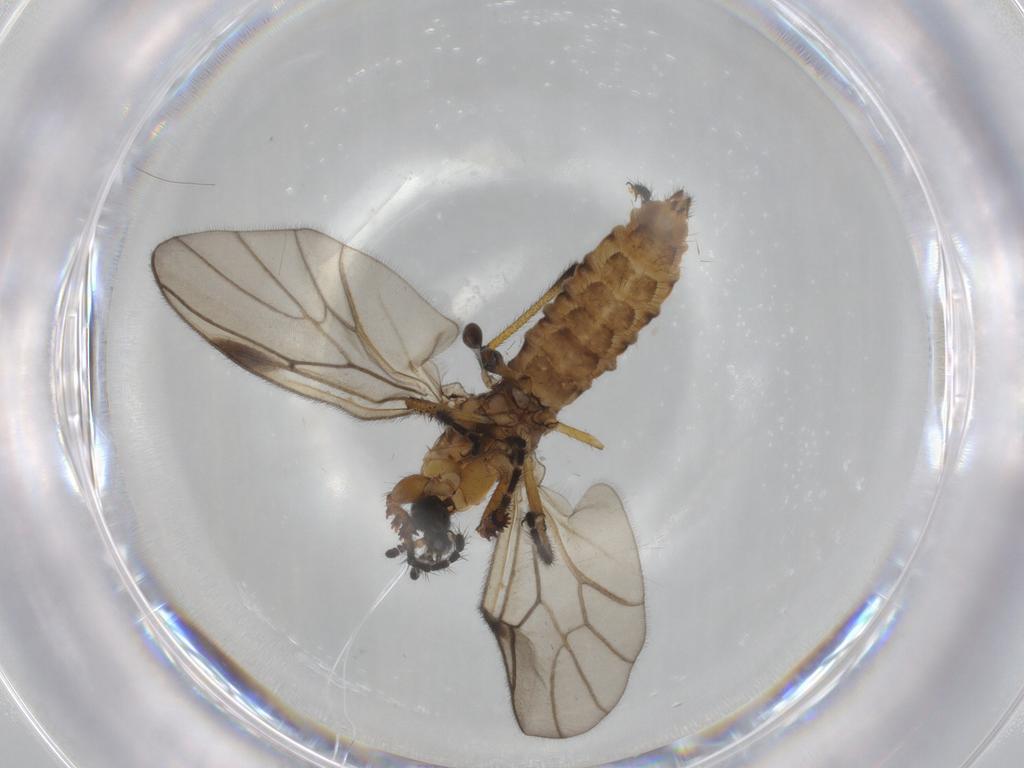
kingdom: Animalia
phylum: Arthropoda
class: Insecta
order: Diptera
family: Bibionidae
